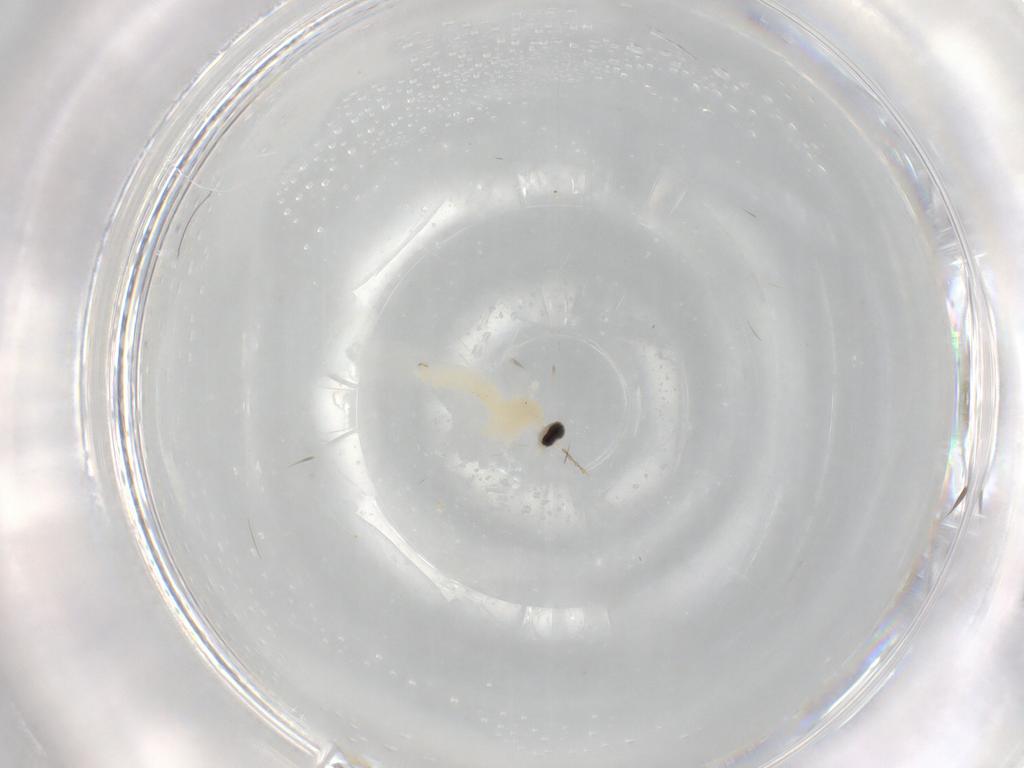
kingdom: Animalia
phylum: Arthropoda
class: Insecta
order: Diptera
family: Cecidomyiidae
